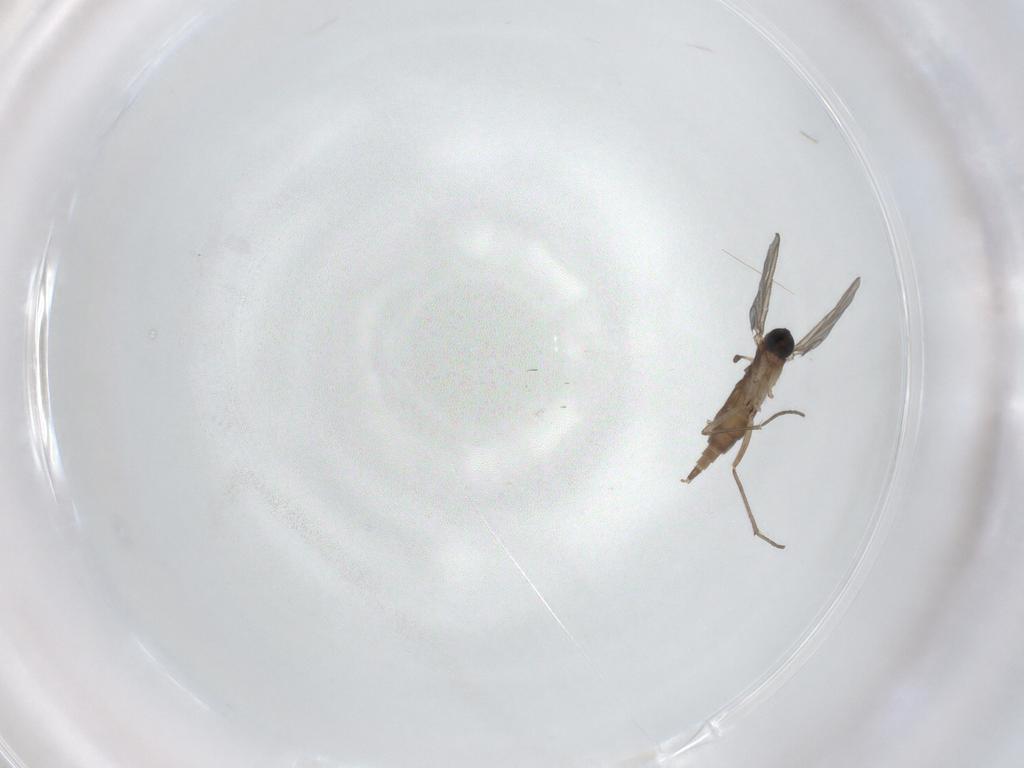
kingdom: Animalia
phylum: Arthropoda
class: Insecta
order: Diptera
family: Sciaridae
